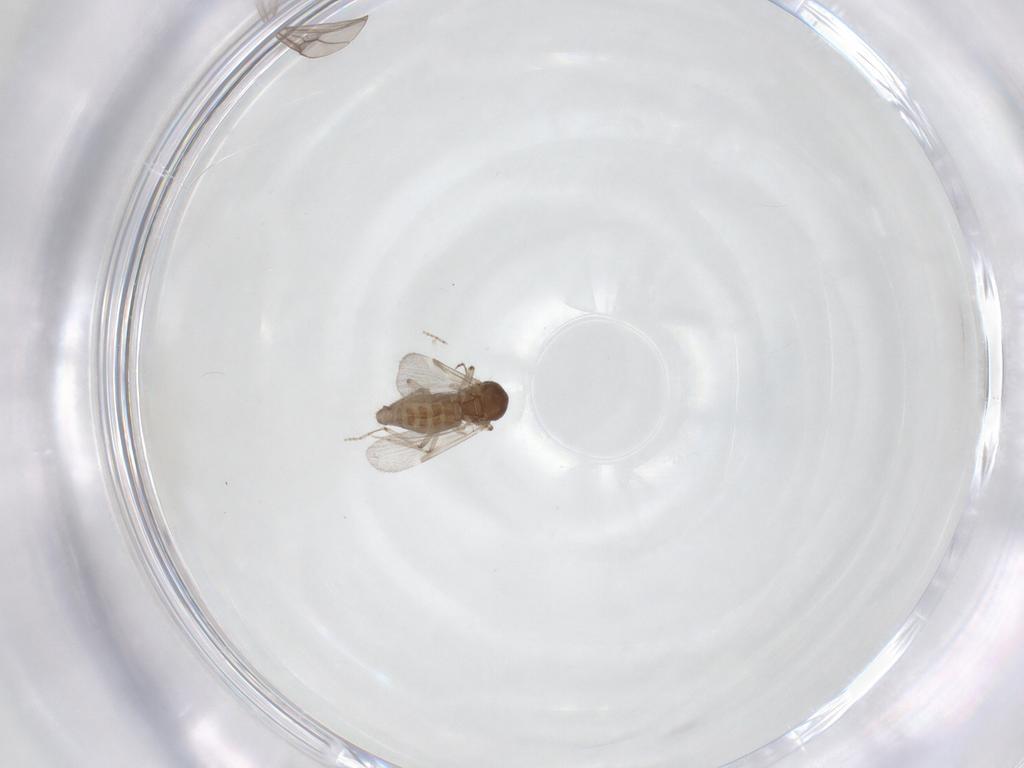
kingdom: Animalia
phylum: Arthropoda
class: Insecta
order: Diptera
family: Ceratopogonidae
